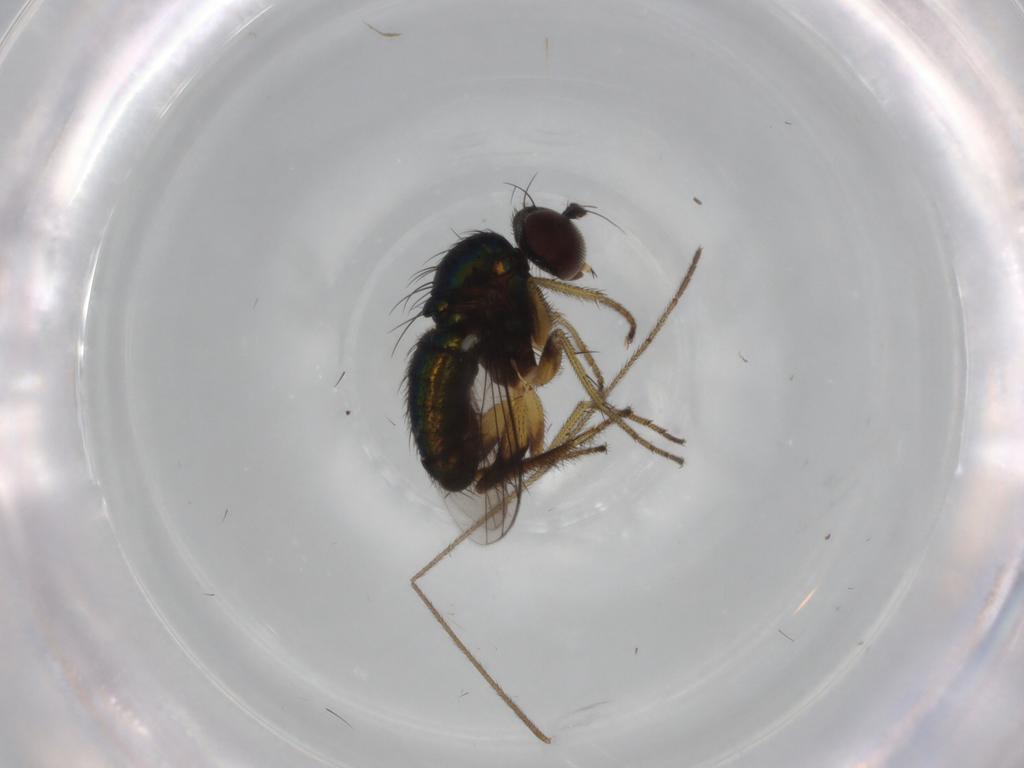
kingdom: Animalia
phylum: Arthropoda
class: Insecta
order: Diptera
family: Dolichopodidae
